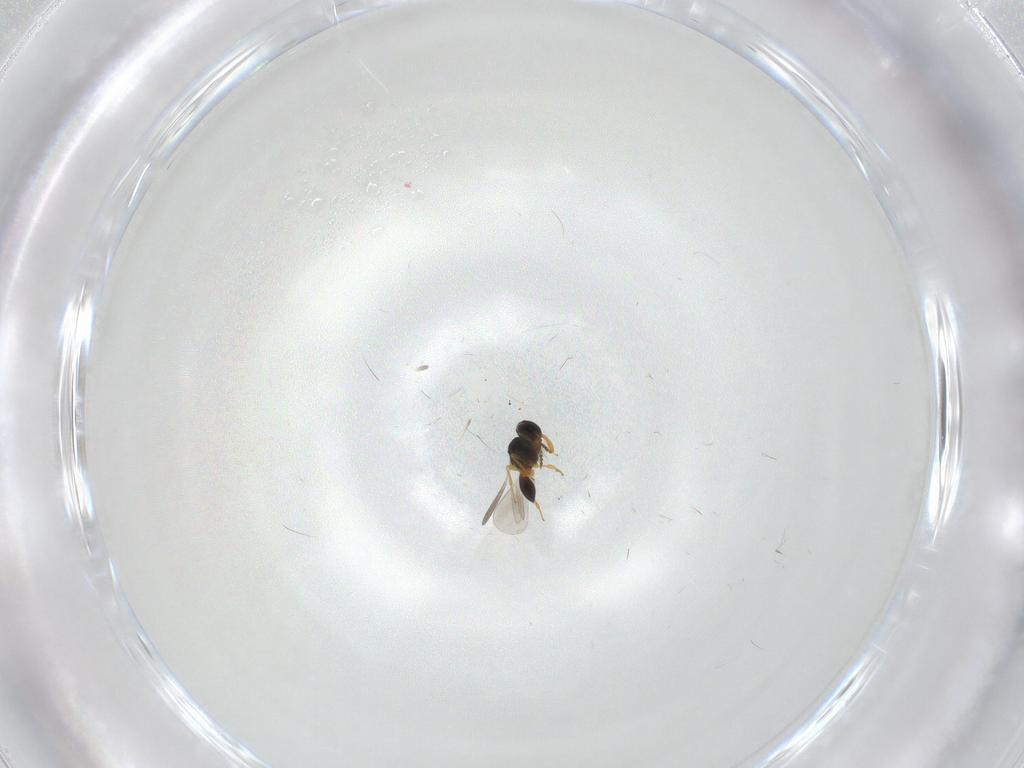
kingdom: Animalia
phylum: Arthropoda
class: Insecta
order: Hymenoptera
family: Platygastridae
